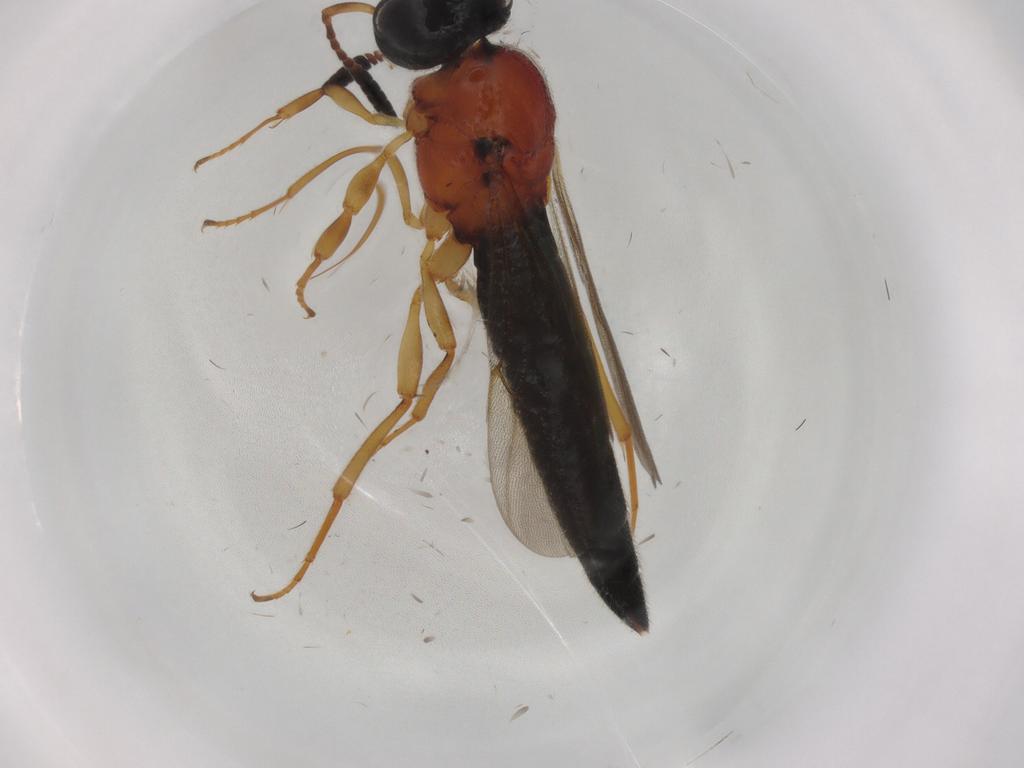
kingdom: Animalia
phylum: Arthropoda
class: Insecta
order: Hymenoptera
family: Scelionidae
